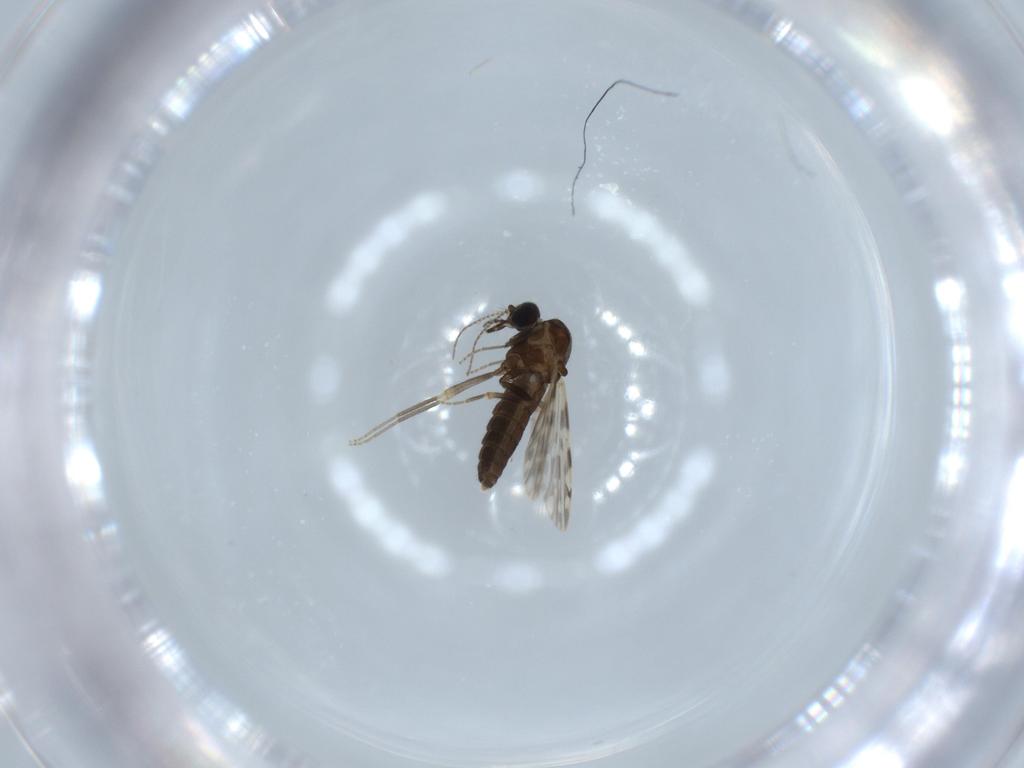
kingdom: Animalia
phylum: Arthropoda
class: Insecta
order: Diptera
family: Ceratopogonidae
